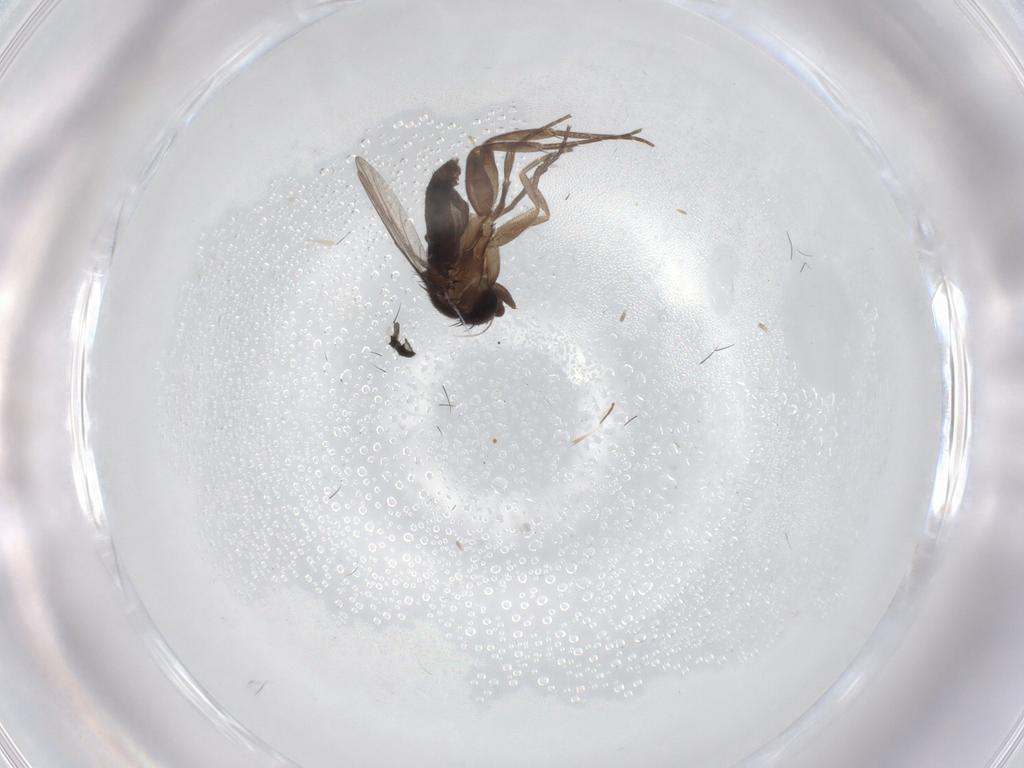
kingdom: Animalia
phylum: Arthropoda
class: Insecta
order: Diptera
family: Phoridae
